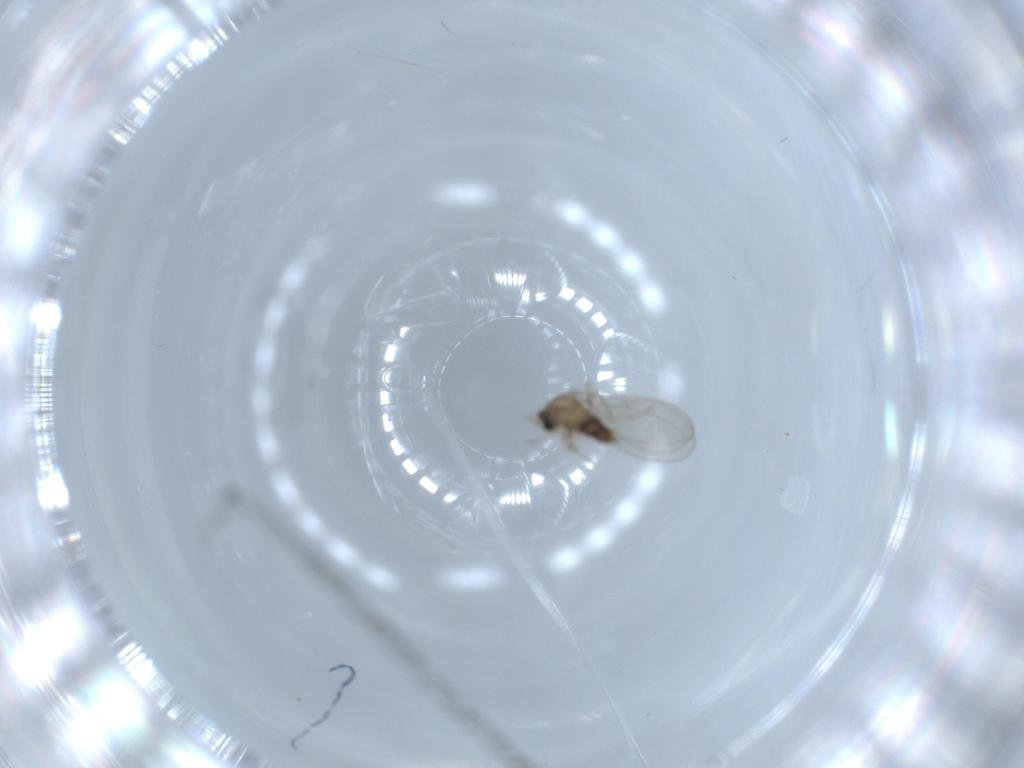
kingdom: Animalia
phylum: Arthropoda
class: Insecta
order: Diptera
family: Cecidomyiidae
